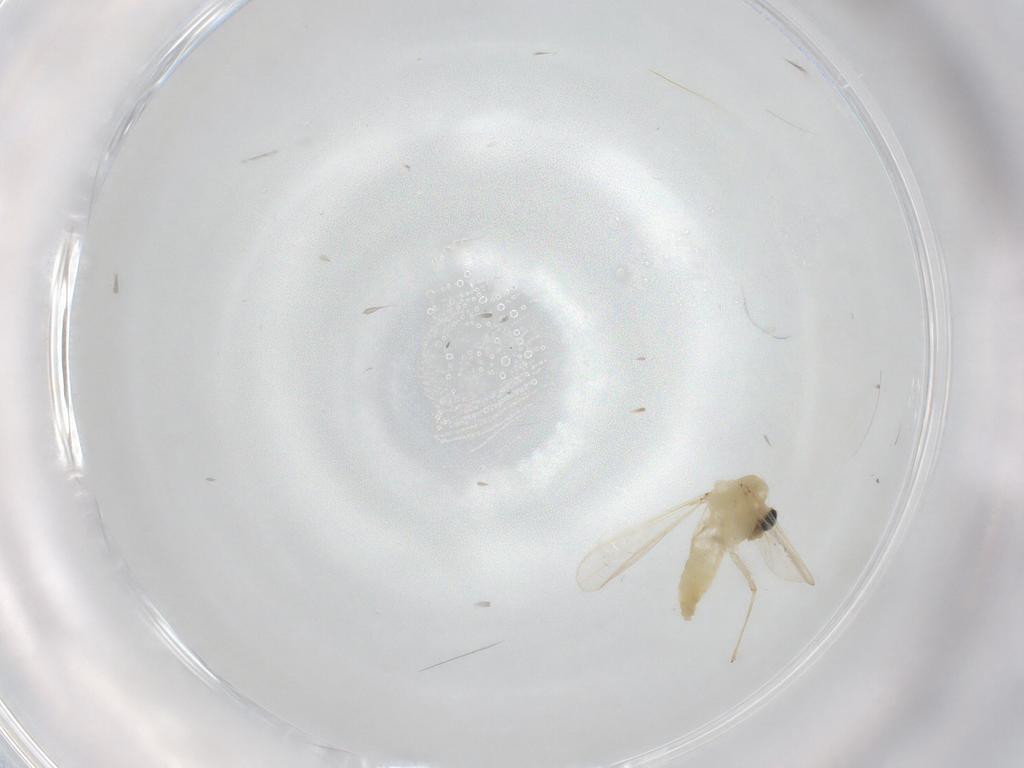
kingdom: Animalia
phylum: Arthropoda
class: Insecta
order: Diptera
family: Chironomidae
